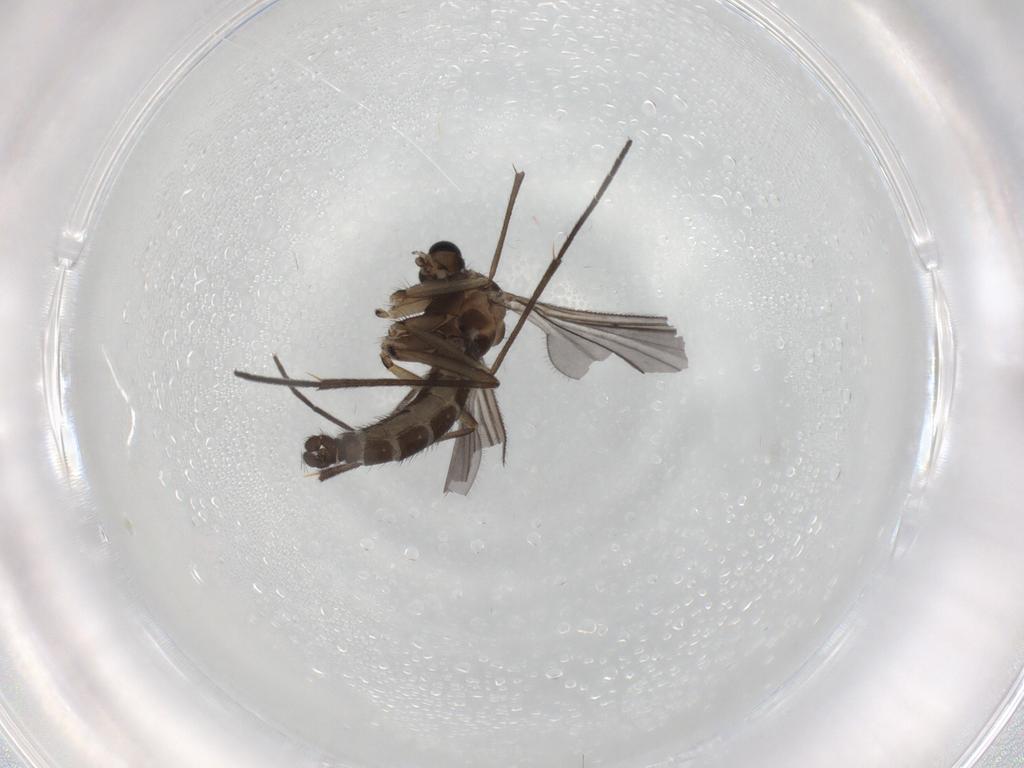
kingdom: Animalia
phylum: Arthropoda
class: Insecta
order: Diptera
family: Sciaridae
